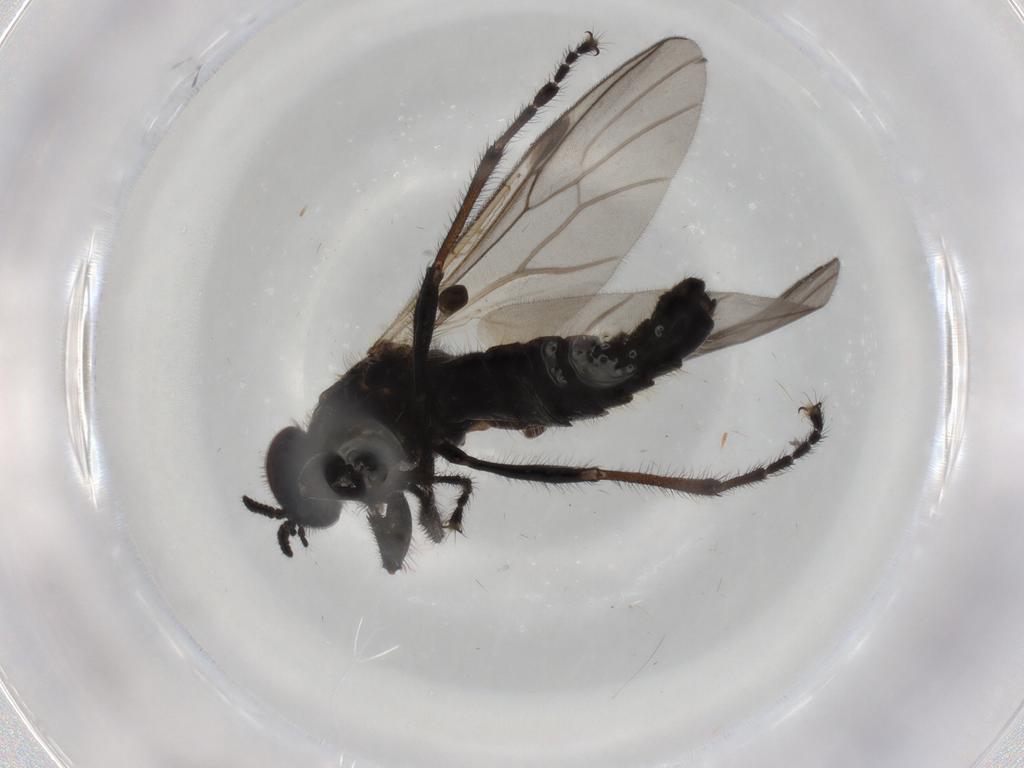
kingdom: Animalia
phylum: Arthropoda
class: Insecta
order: Diptera
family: Bibionidae
